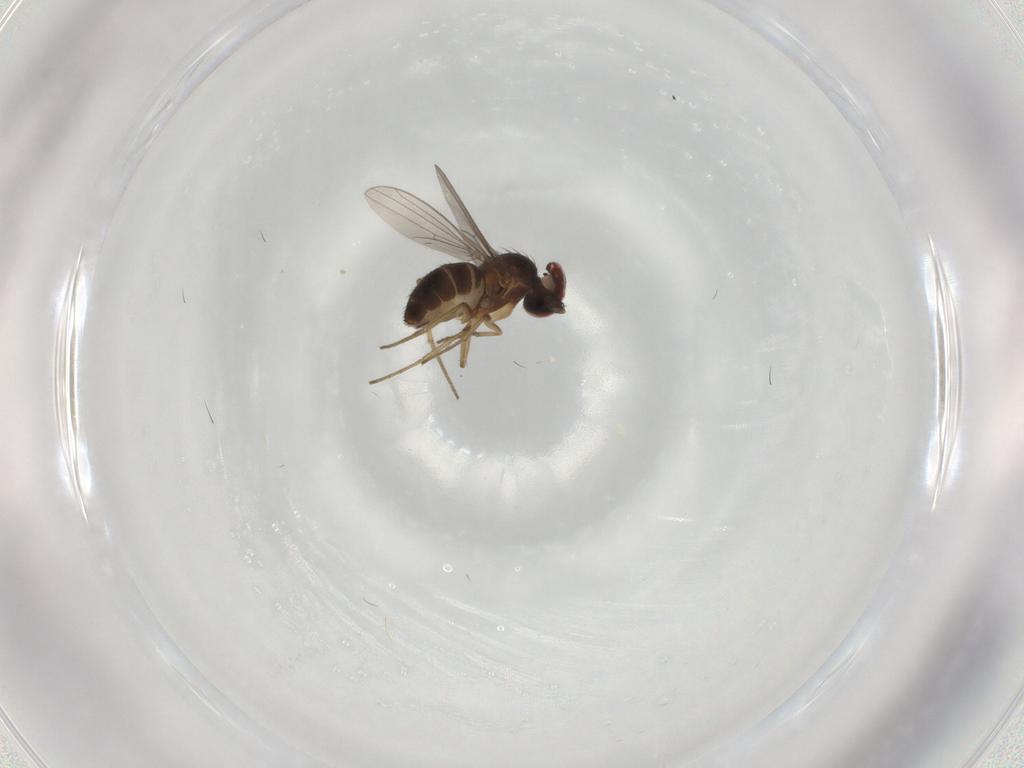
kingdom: Animalia
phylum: Arthropoda
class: Insecta
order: Diptera
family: Dolichopodidae
